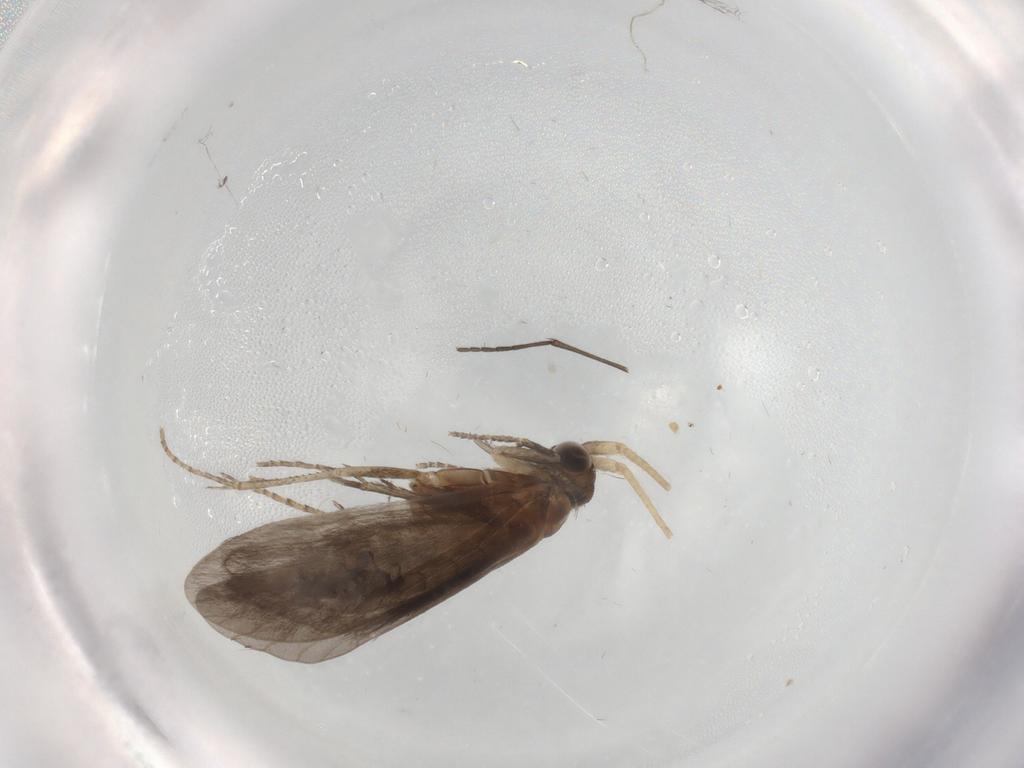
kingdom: Animalia
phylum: Arthropoda
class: Insecta
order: Trichoptera
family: Helicopsychidae
